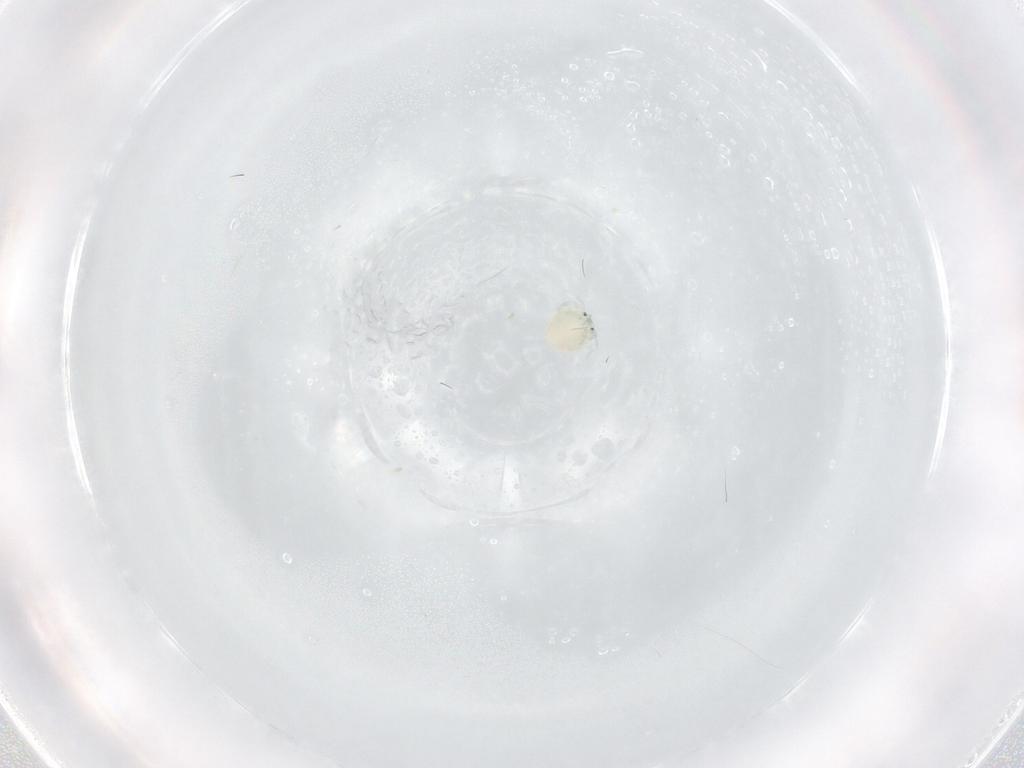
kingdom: Animalia
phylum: Arthropoda
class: Arachnida
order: Trombidiformes
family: Arrenuridae
